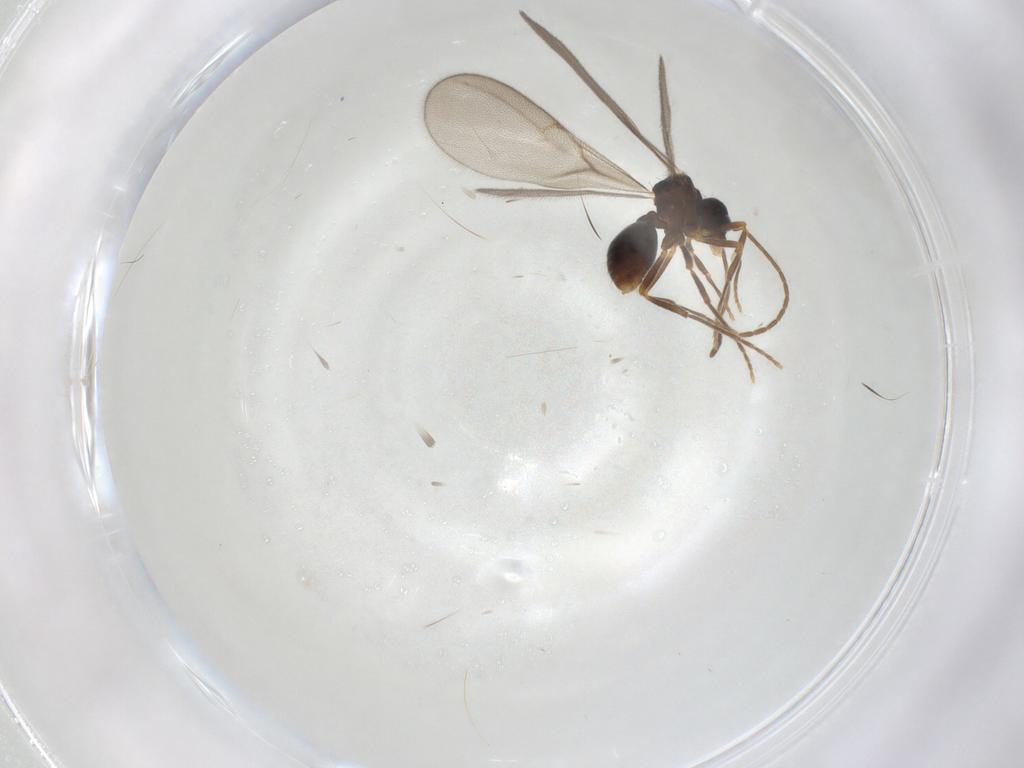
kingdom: Animalia
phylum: Arthropoda
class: Insecta
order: Hymenoptera
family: Formicidae
